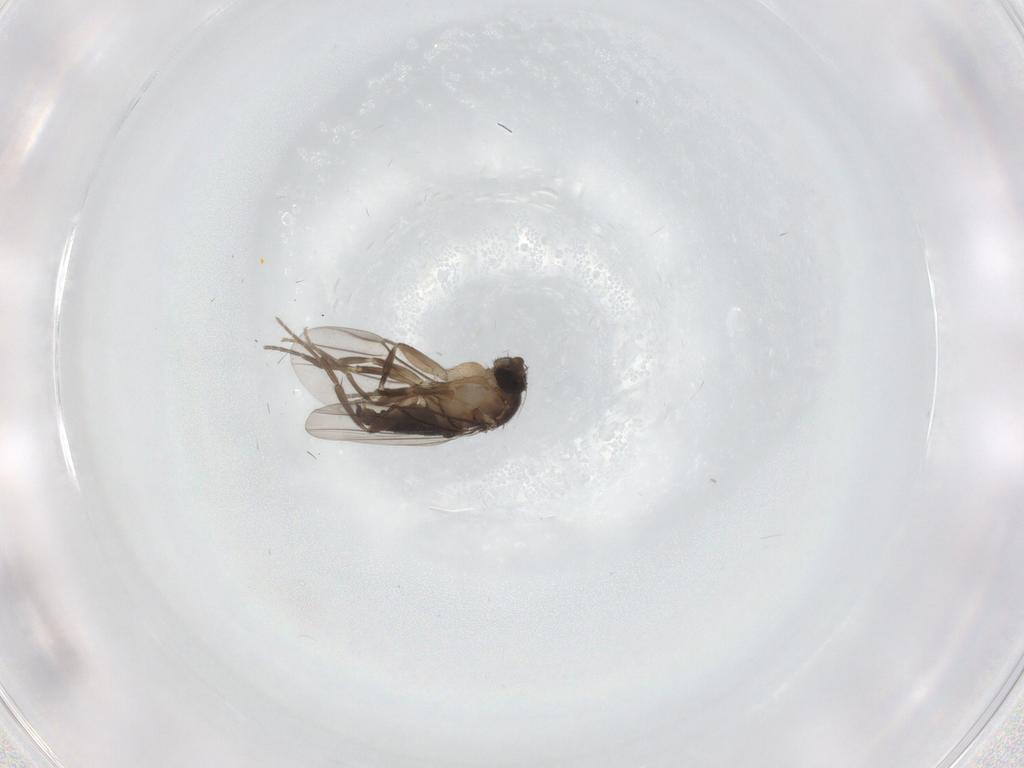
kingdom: Animalia
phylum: Arthropoda
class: Insecta
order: Diptera
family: Phoridae
